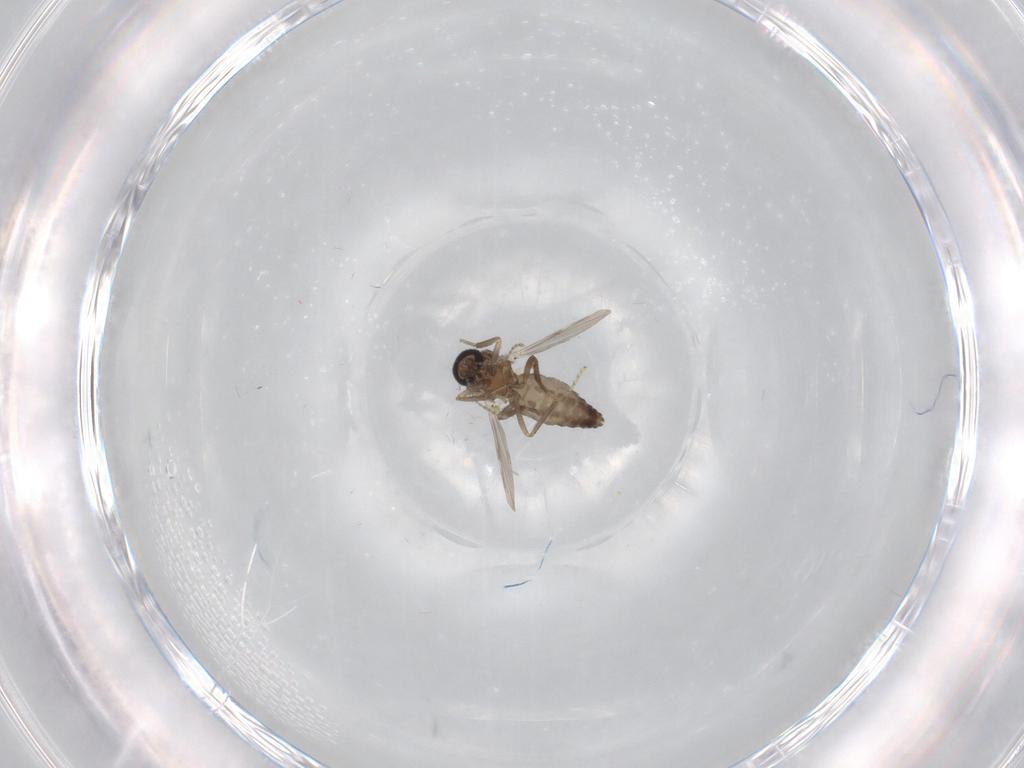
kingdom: Animalia
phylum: Arthropoda
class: Insecta
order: Diptera
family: Ceratopogonidae
